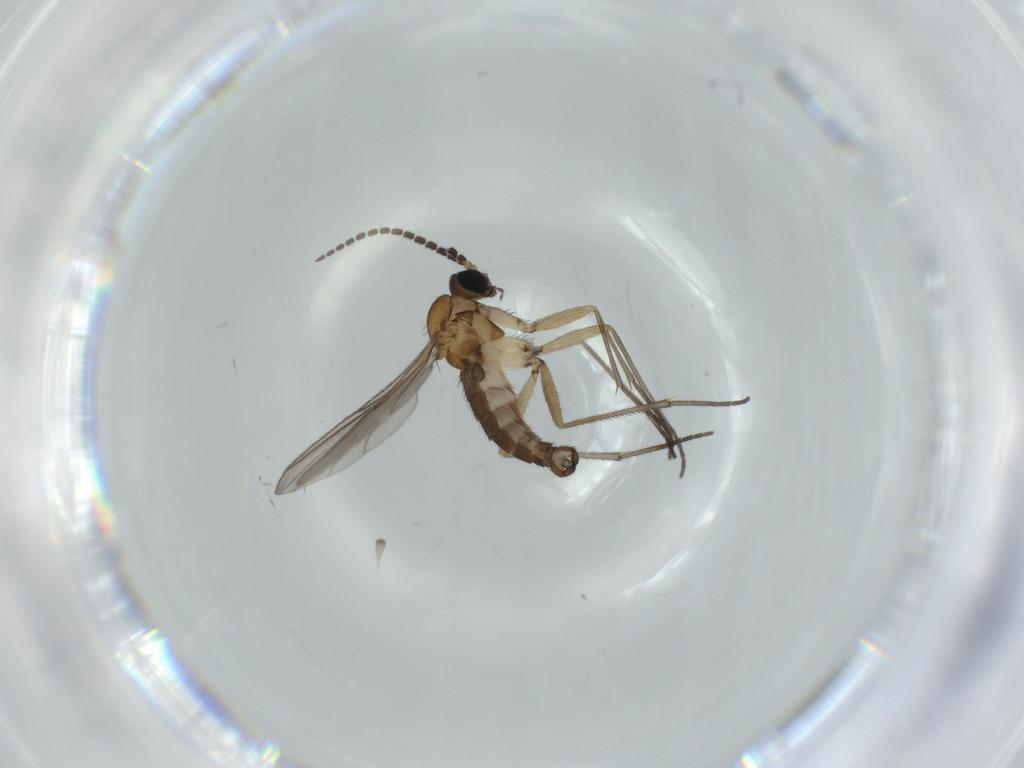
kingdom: Animalia
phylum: Arthropoda
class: Insecta
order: Diptera
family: Sciaridae
